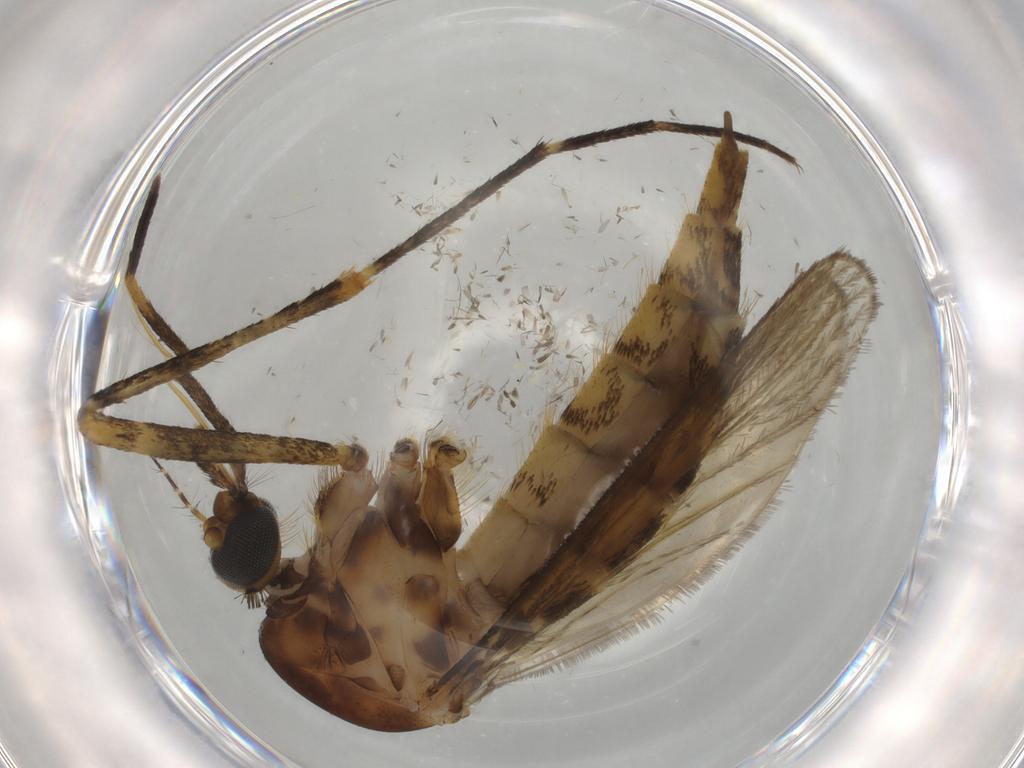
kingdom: Animalia
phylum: Arthropoda
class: Insecta
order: Diptera
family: Culicidae
